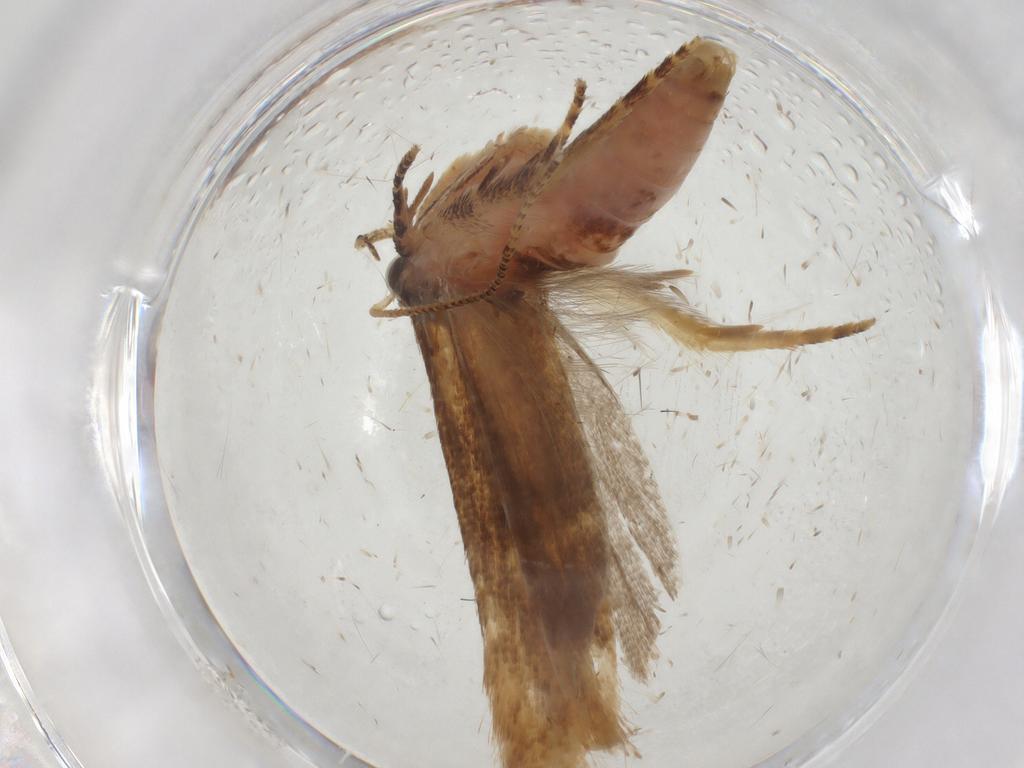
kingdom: Animalia
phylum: Arthropoda
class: Insecta
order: Lepidoptera
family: Gelechiidae
